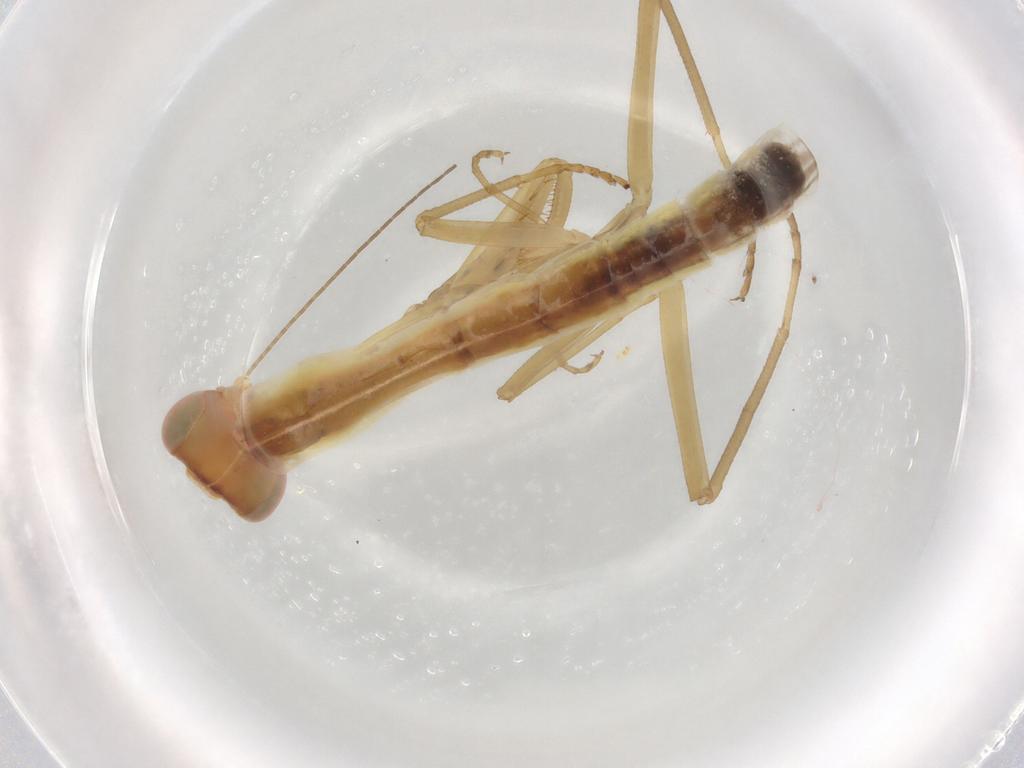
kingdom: Animalia
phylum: Arthropoda
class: Insecta
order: Mantodea
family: Mantidae
